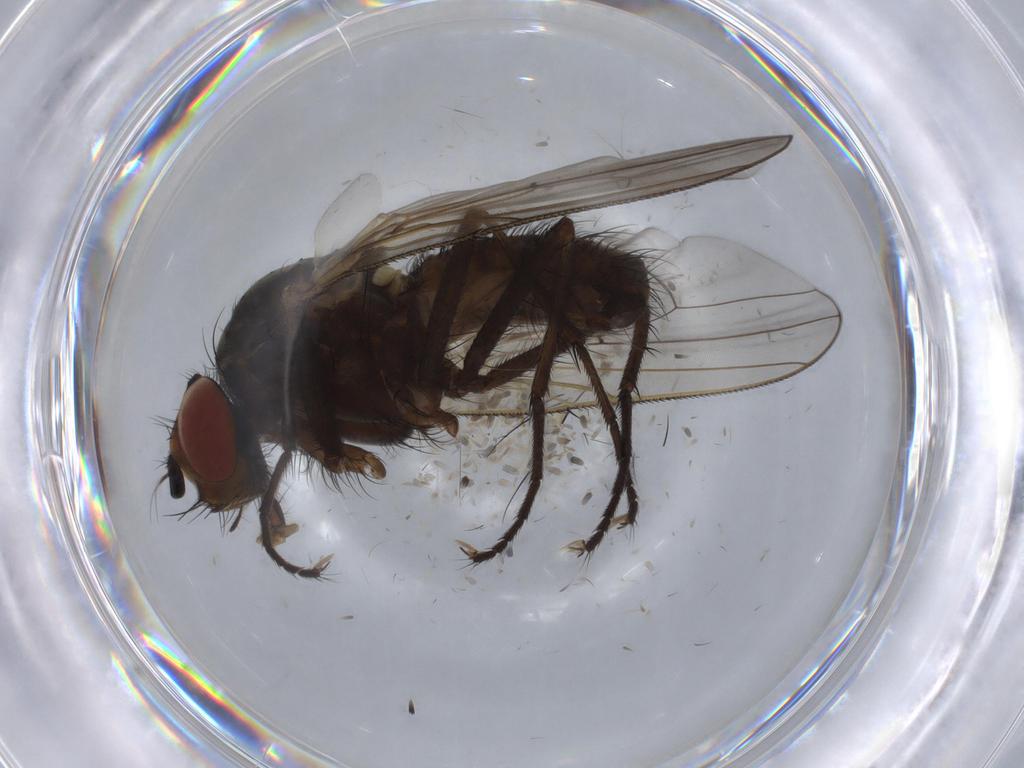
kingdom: Animalia
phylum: Arthropoda
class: Insecta
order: Diptera
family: Anthomyiidae
